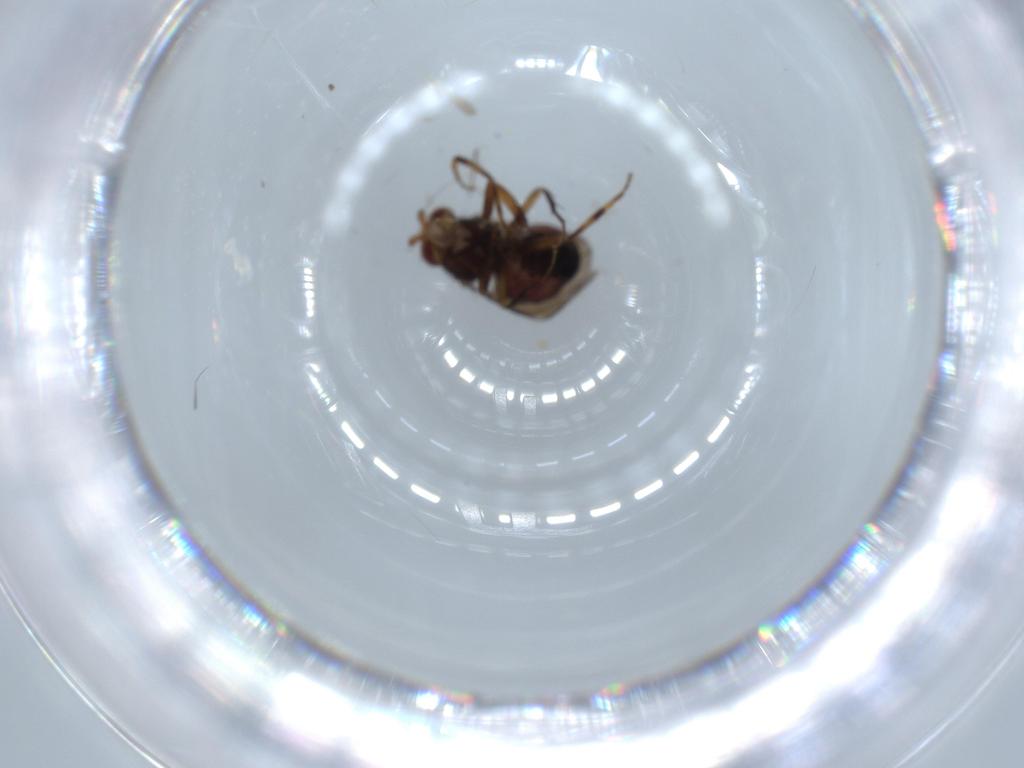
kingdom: Animalia
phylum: Arthropoda
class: Insecta
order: Diptera
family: Sphaeroceridae
